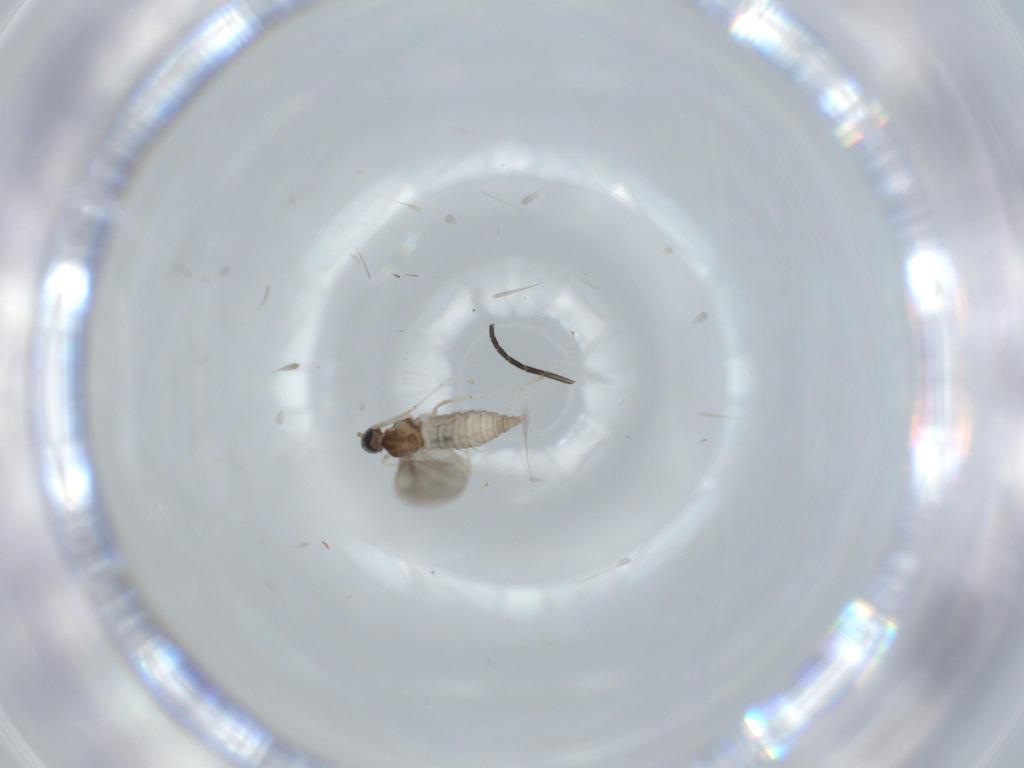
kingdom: Animalia
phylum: Arthropoda
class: Insecta
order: Diptera
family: Cecidomyiidae
